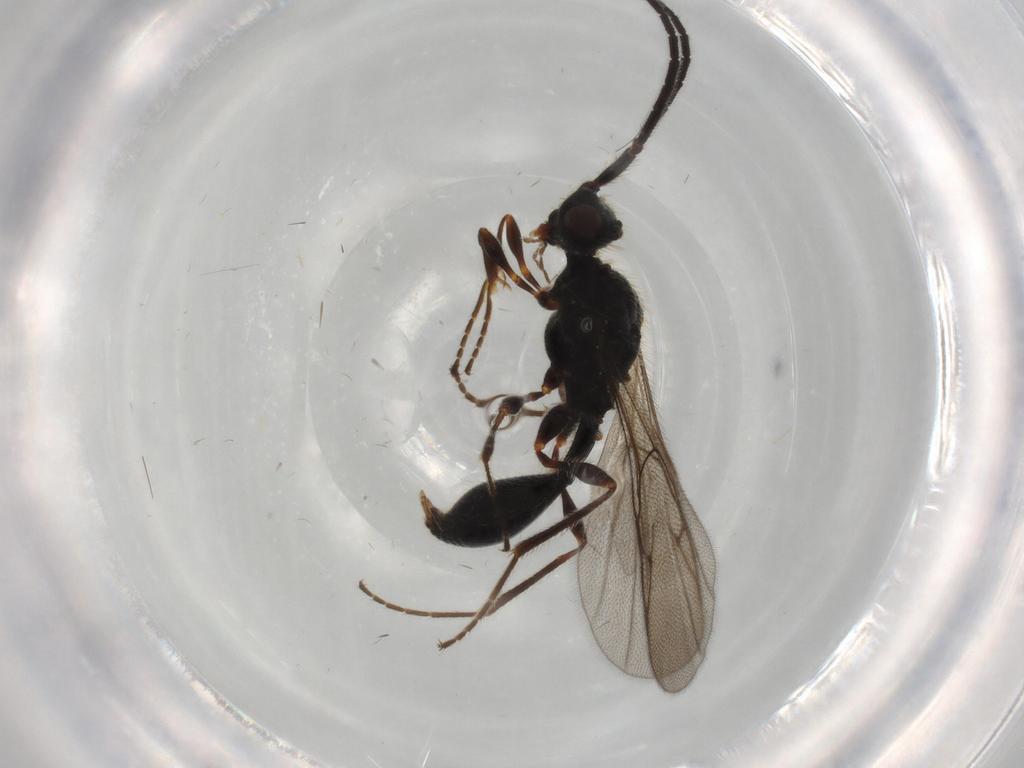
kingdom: Animalia
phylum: Arthropoda
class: Insecta
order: Hymenoptera
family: Diapriidae
